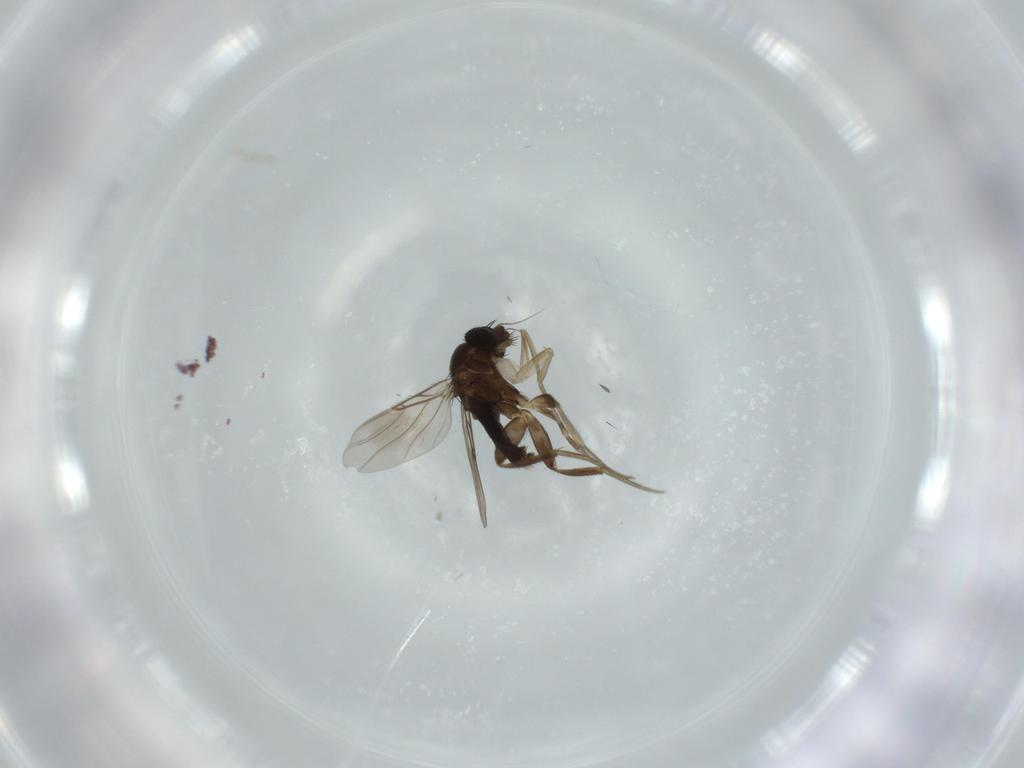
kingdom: Animalia
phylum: Arthropoda
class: Insecta
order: Diptera
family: Phoridae
